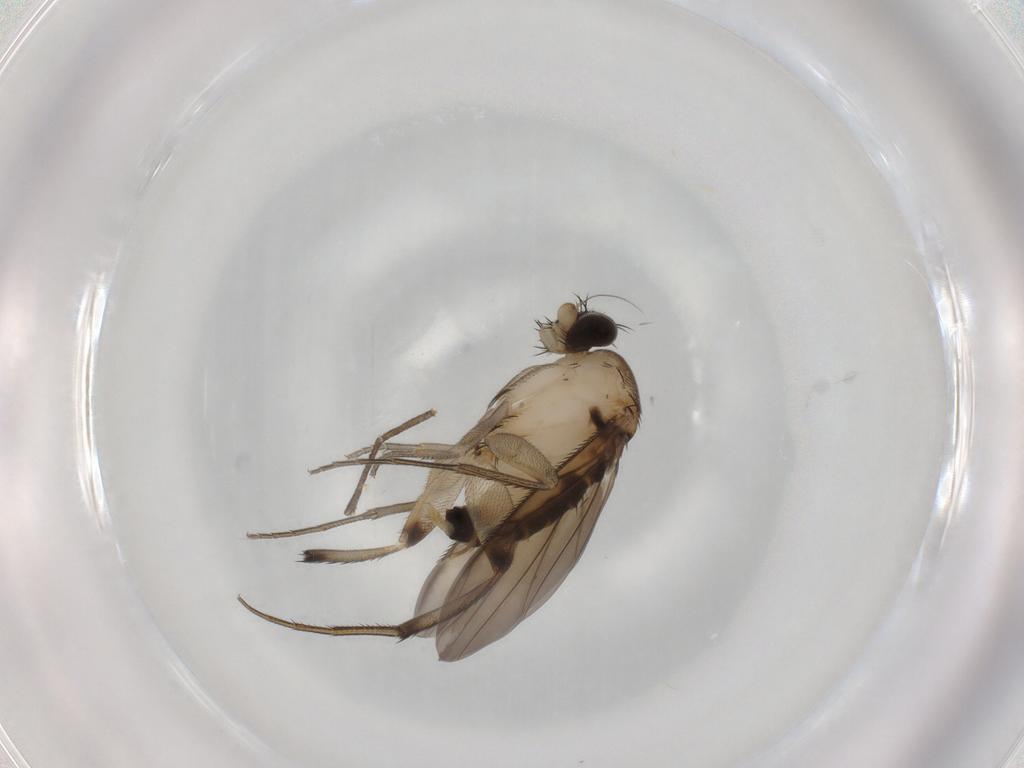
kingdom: Animalia
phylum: Arthropoda
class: Insecta
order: Diptera
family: Phoridae
